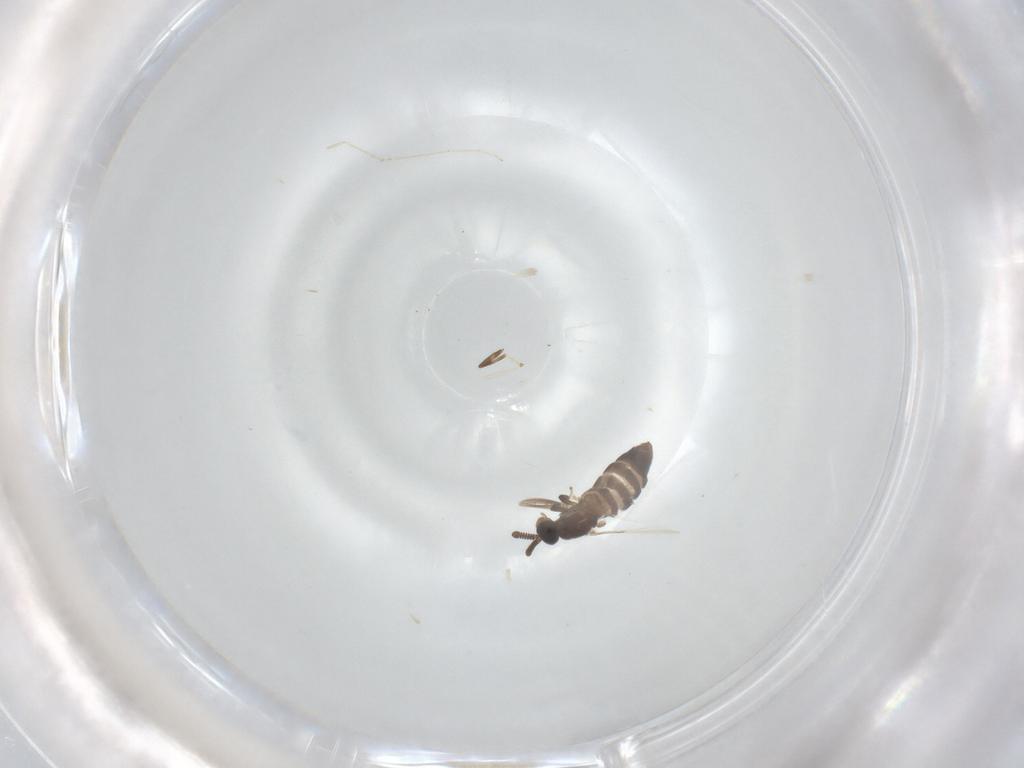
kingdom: Animalia
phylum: Arthropoda
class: Insecta
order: Diptera
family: Scatopsidae
